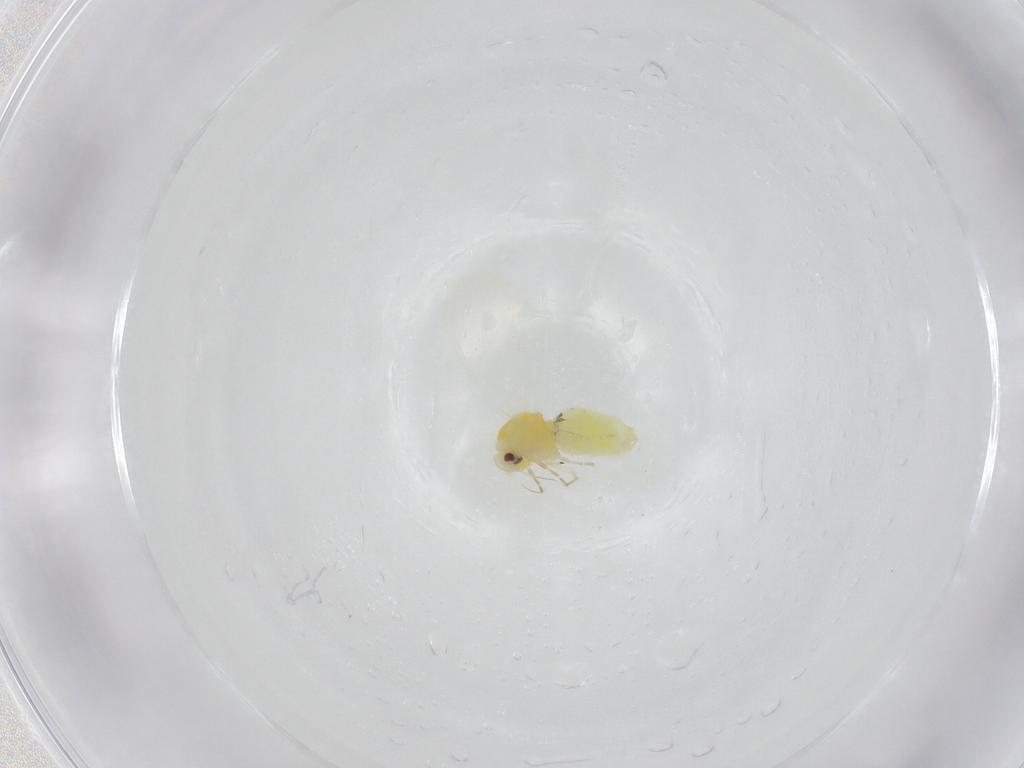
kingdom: Animalia
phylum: Arthropoda
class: Insecta
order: Hemiptera
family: Aleyrodidae
